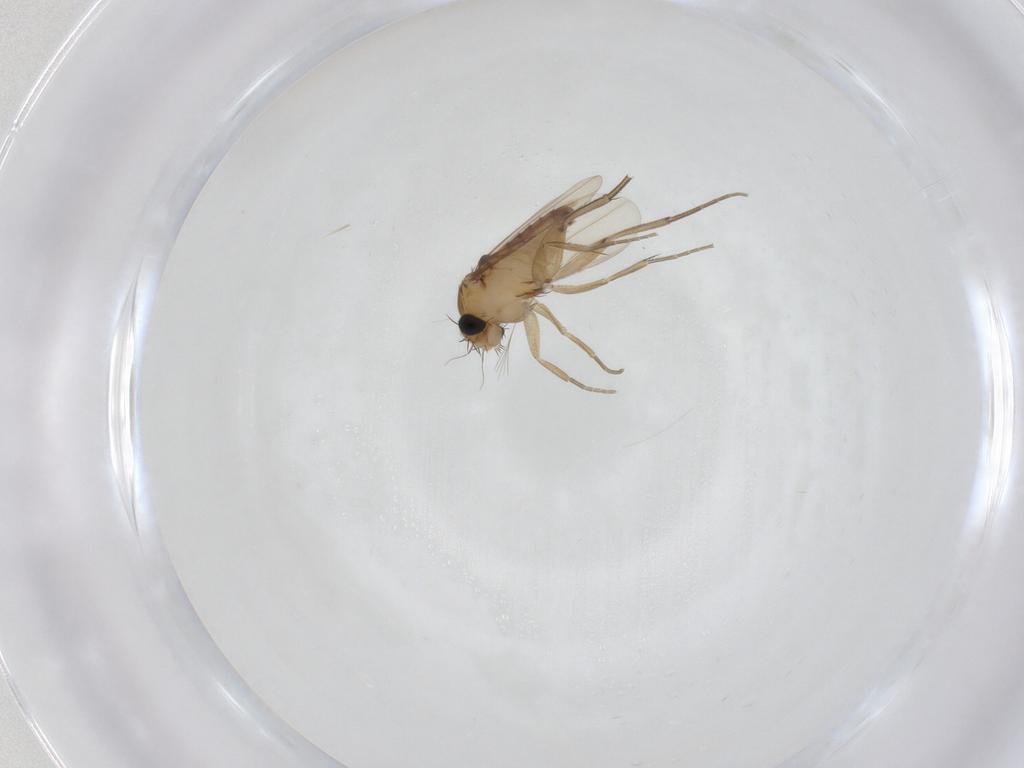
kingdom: Animalia
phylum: Arthropoda
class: Insecta
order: Diptera
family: Phoridae
